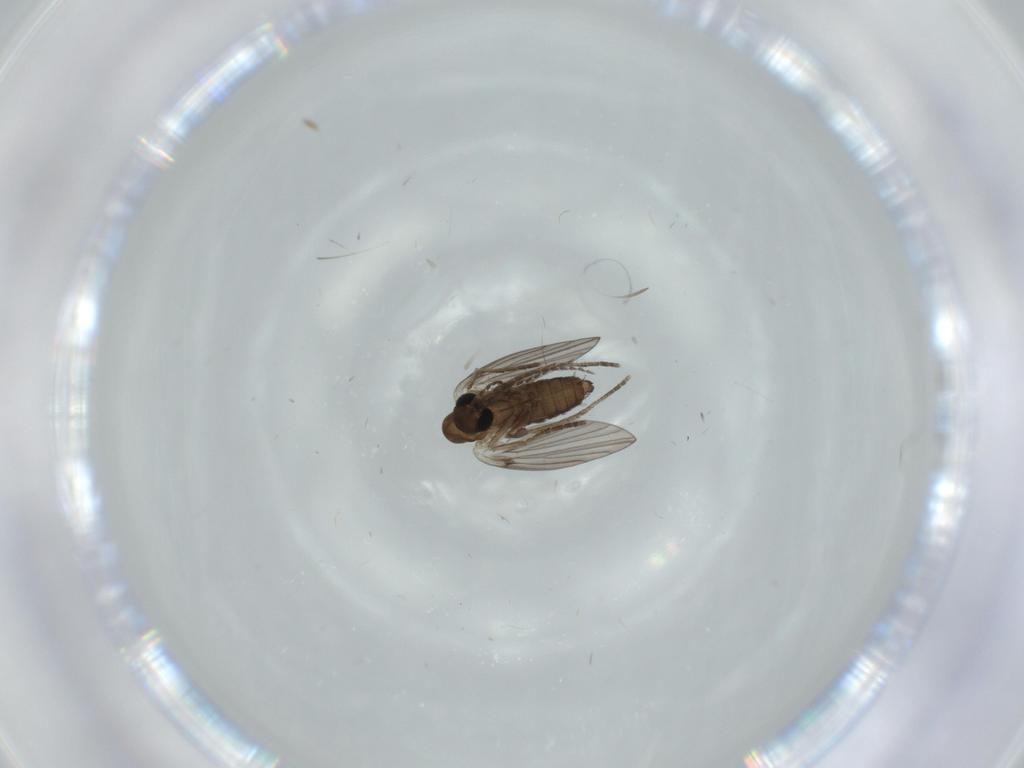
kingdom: Animalia
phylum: Arthropoda
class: Insecta
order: Diptera
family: Psychodidae
